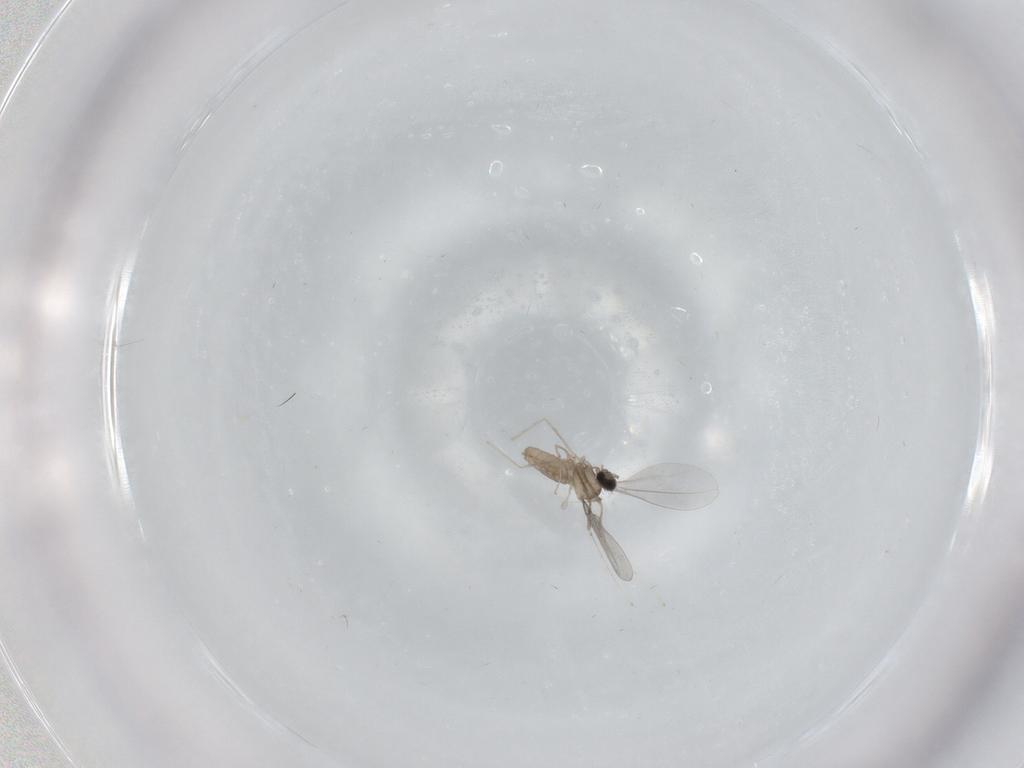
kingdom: Animalia
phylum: Arthropoda
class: Insecta
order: Diptera
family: Cecidomyiidae
